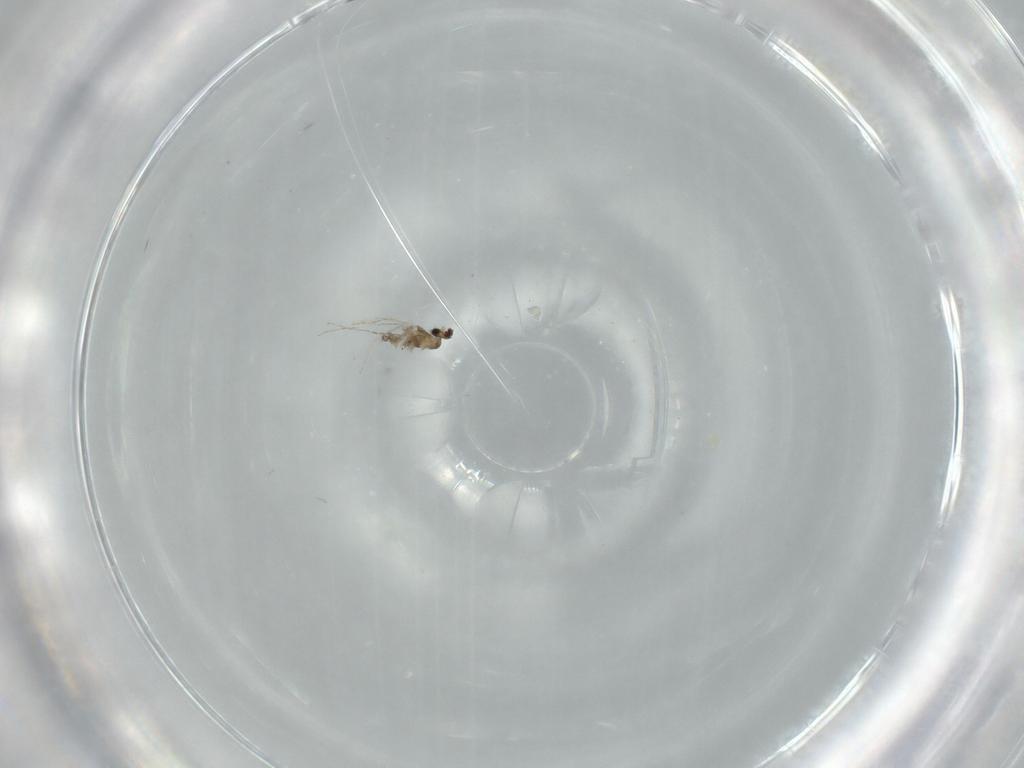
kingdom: Animalia
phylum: Arthropoda
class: Insecta
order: Diptera
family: Cecidomyiidae
